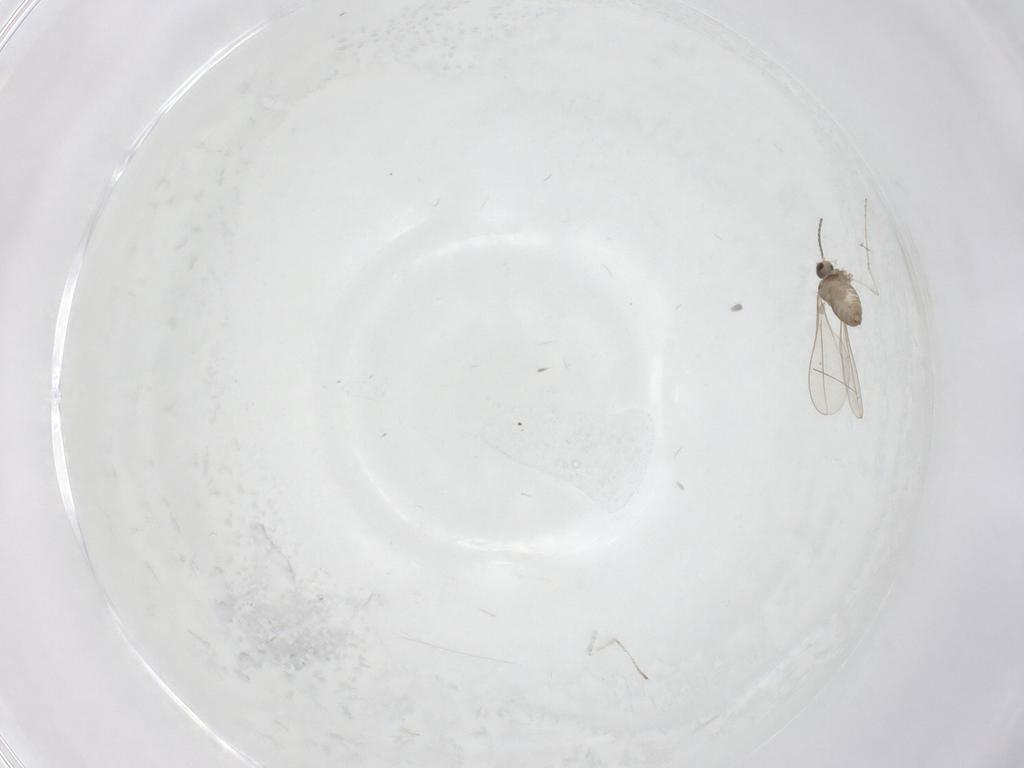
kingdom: Animalia
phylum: Arthropoda
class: Insecta
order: Diptera
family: Cecidomyiidae
